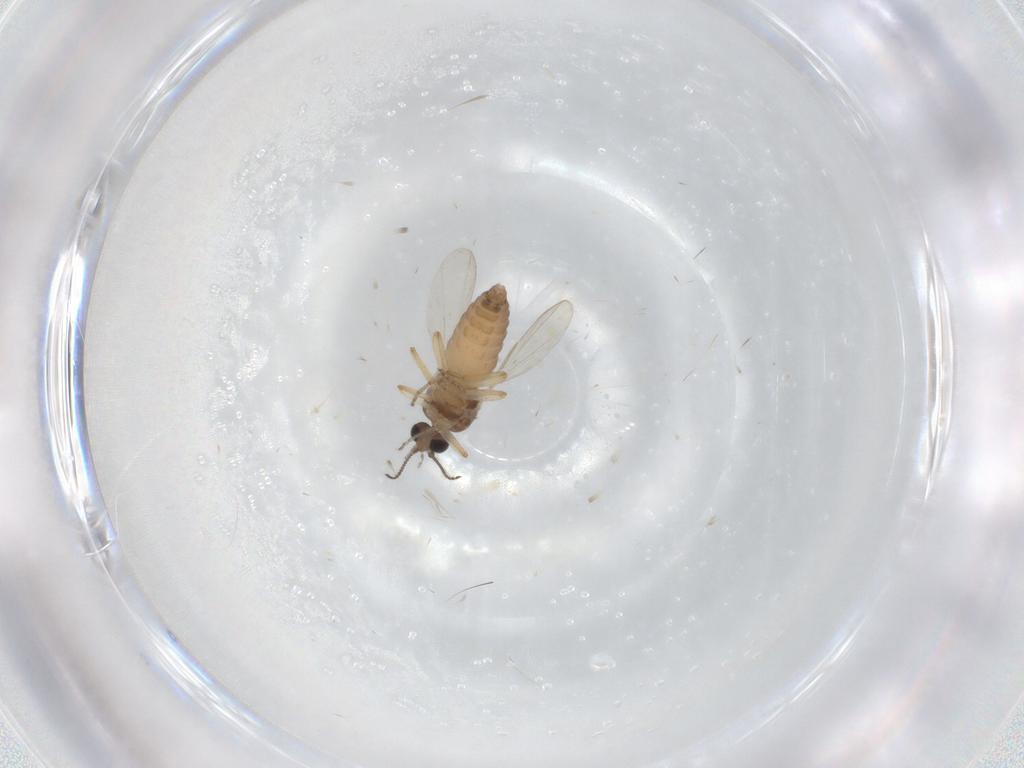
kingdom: Animalia
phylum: Arthropoda
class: Insecta
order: Diptera
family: Ceratopogonidae
